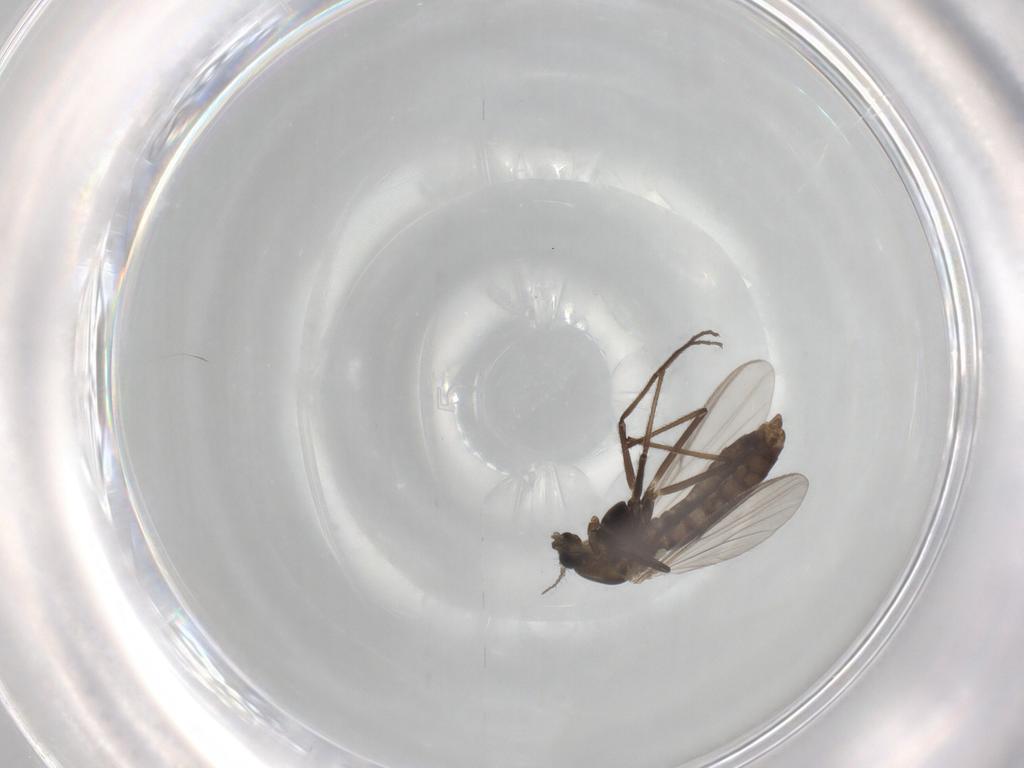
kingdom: Animalia
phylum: Arthropoda
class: Insecta
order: Diptera
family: Chironomidae
